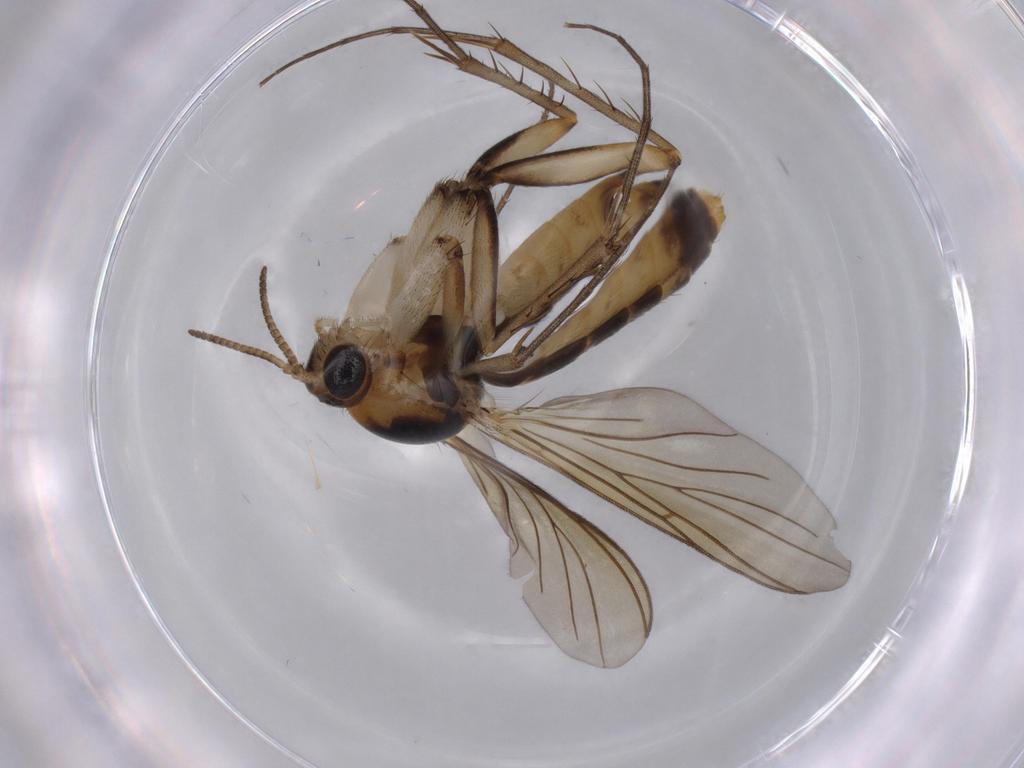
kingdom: Animalia
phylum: Arthropoda
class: Insecta
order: Diptera
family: Sciaridae
